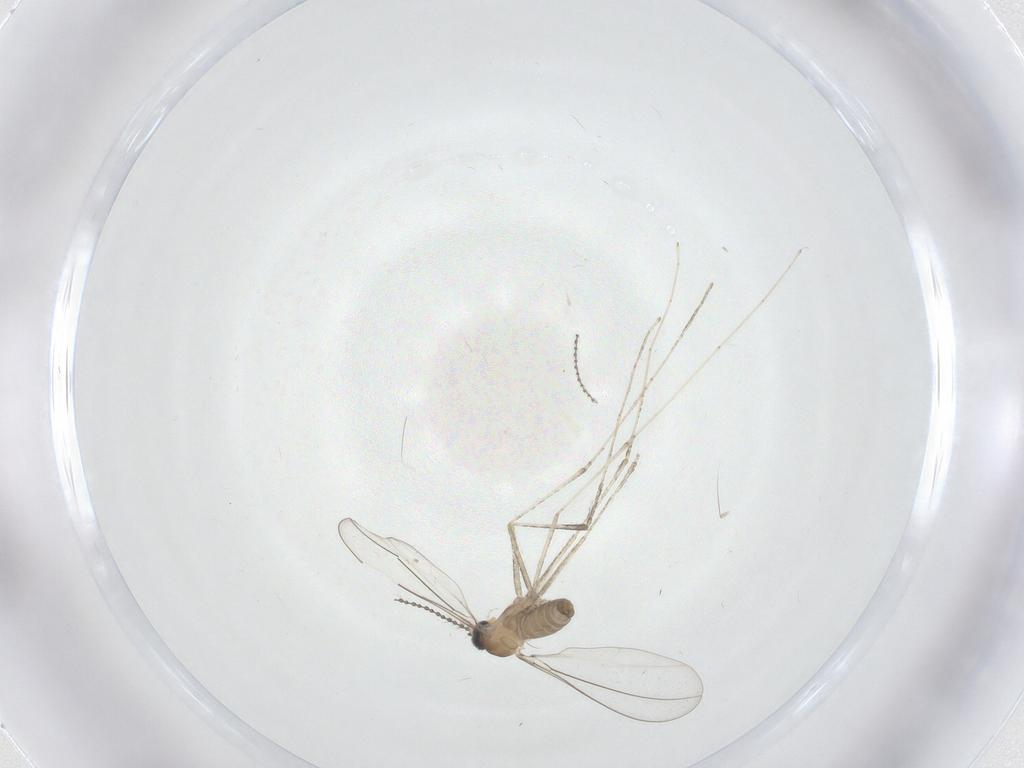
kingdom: Animalia
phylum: Arthropoda
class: Insecta
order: Diptera
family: Cecidomyiidae
